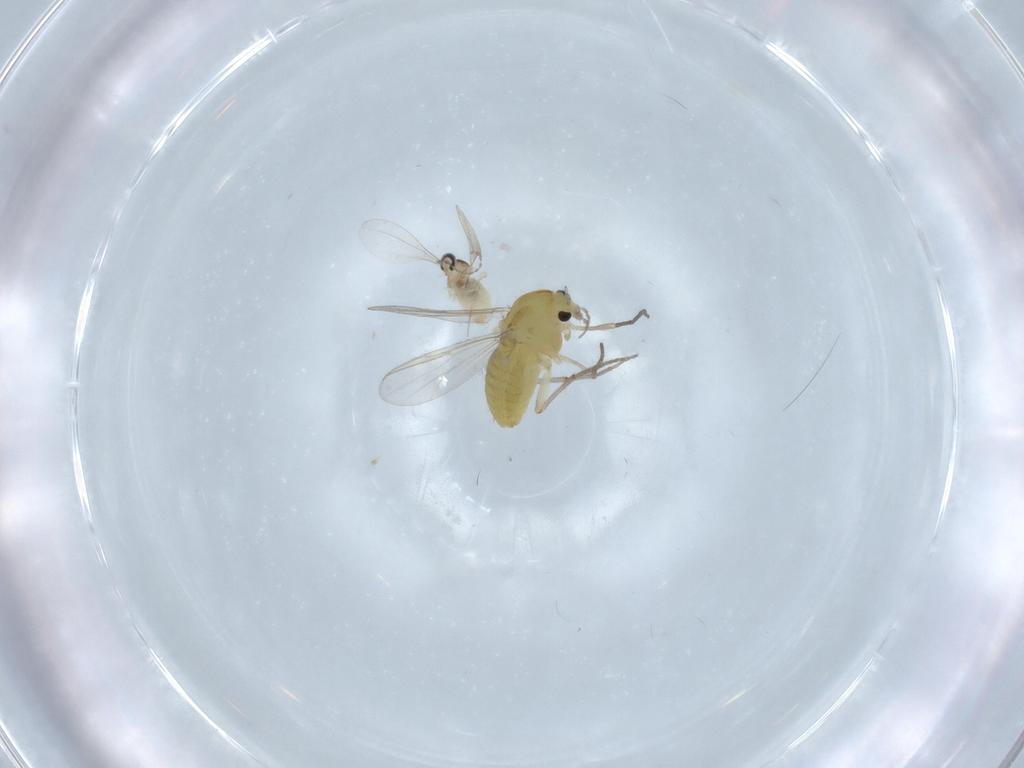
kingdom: Animalia
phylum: Arthropoda
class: Insecta
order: Diptera
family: Chironomidae
